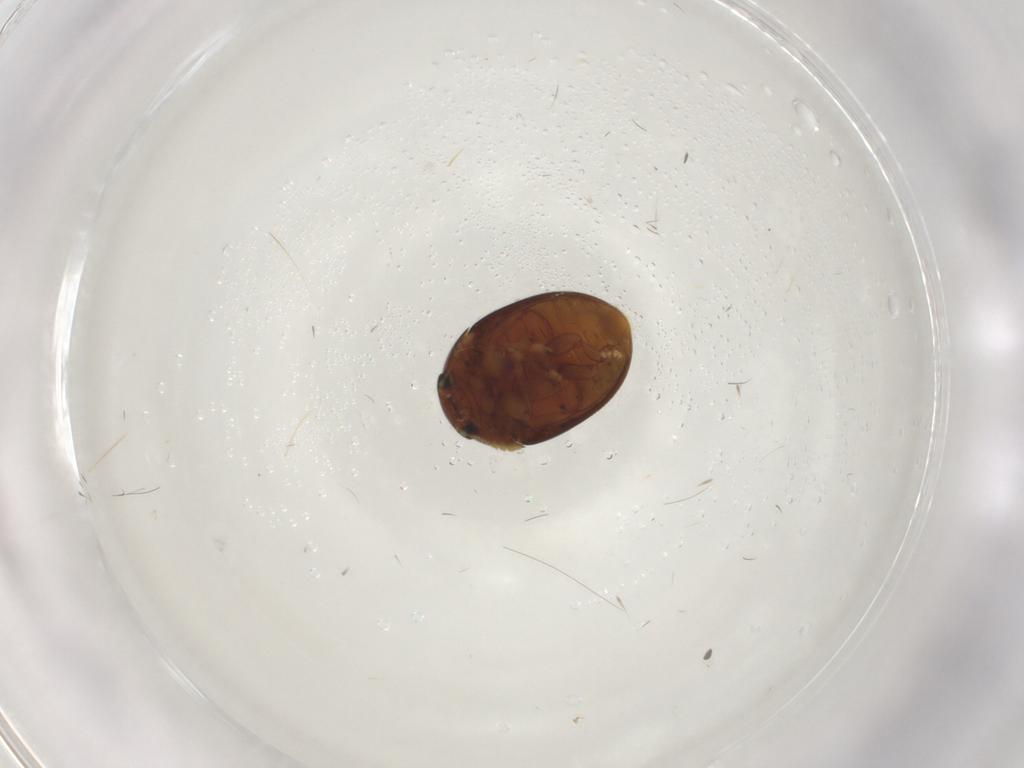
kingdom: Animalia
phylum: Arthropoda
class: Insecta
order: Coleoptera
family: Phalacridae
